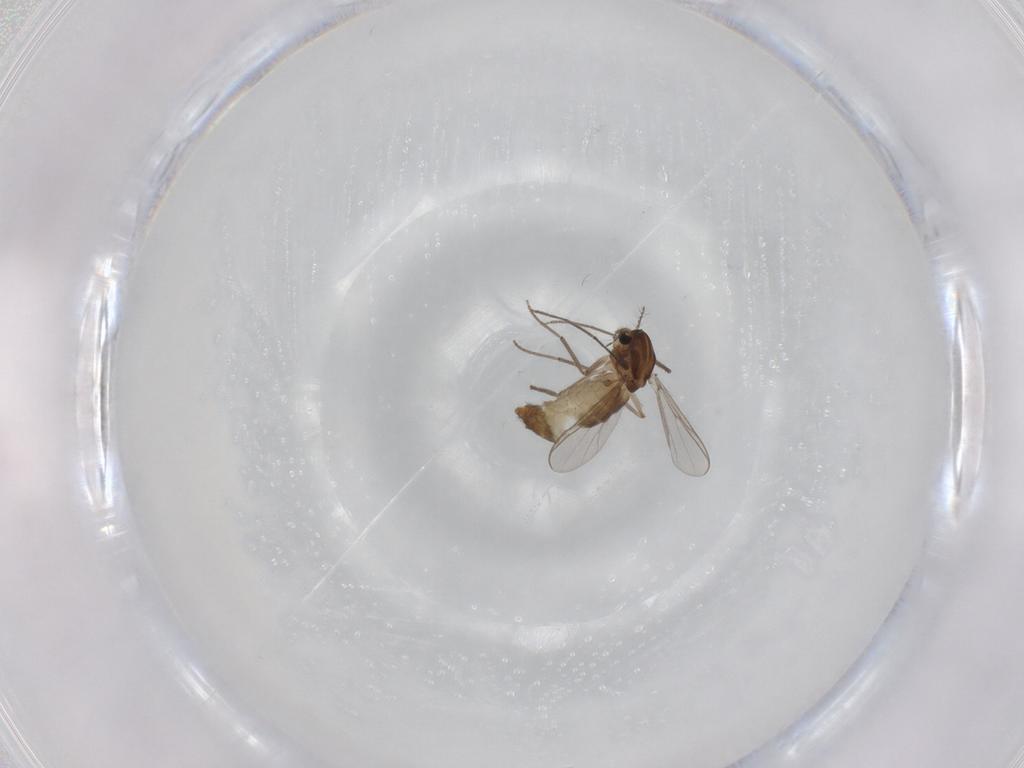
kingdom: Animalia
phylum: Arthropoda
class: Insecta
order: Diptera
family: Chironomidae
